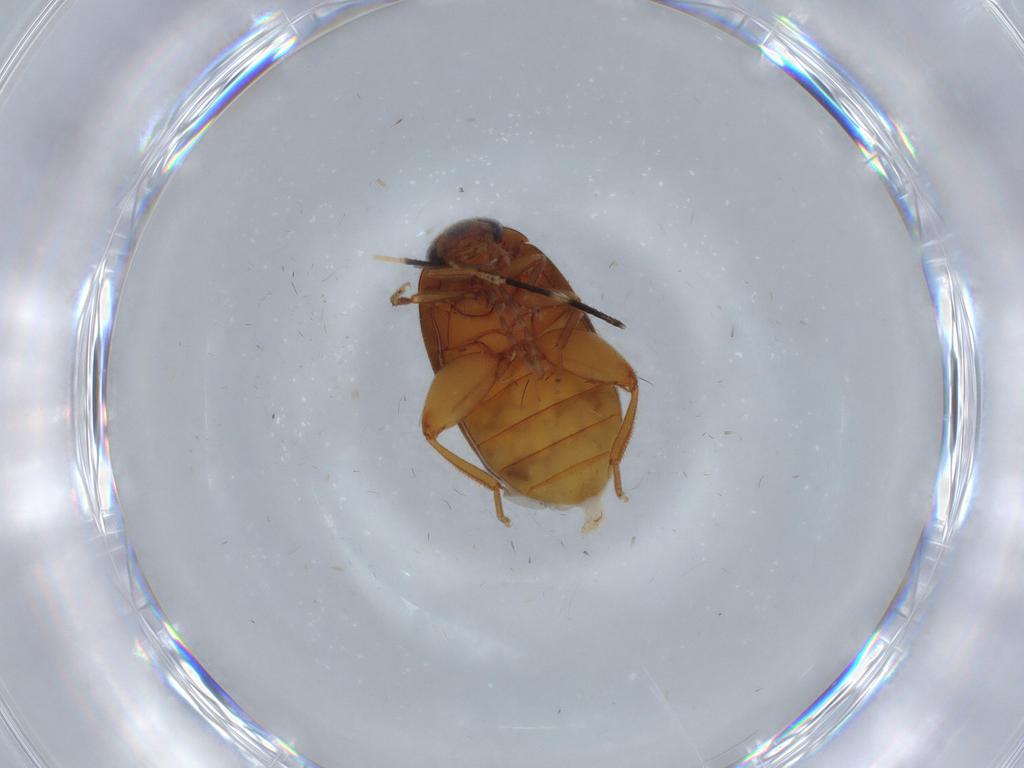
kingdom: Animalia
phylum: Arthropoda
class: Insecta
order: Coleoptera
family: Scirtidae
